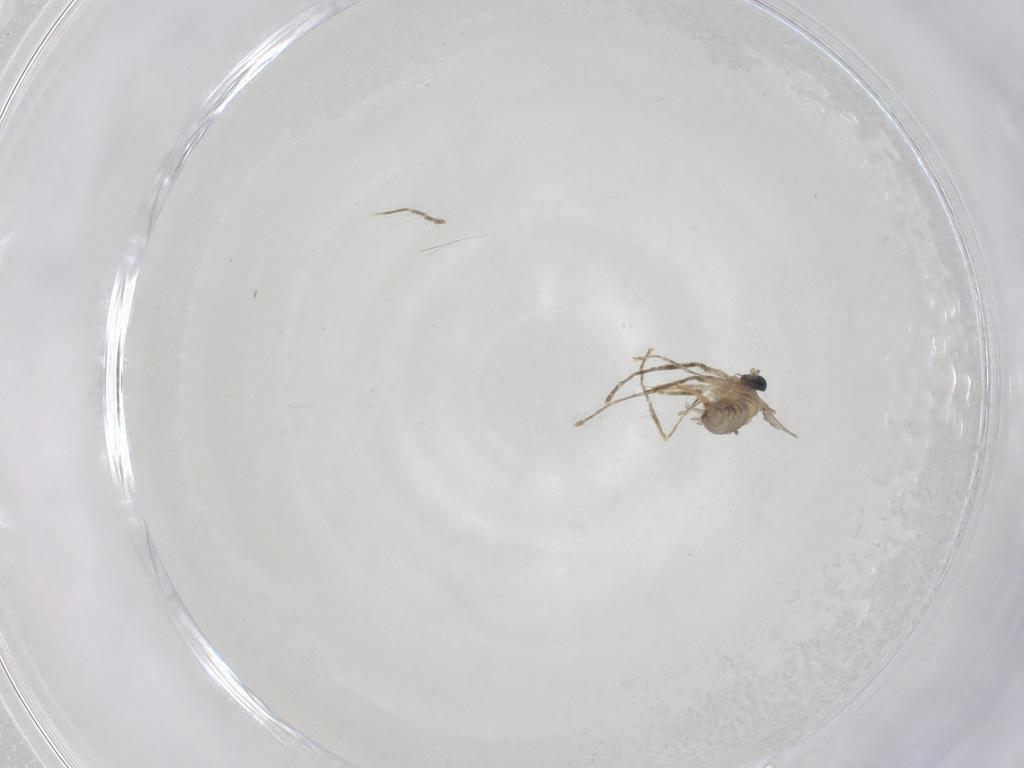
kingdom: Animalia
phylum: Arthropoda
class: Insecta
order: Diptera
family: Cecidomyiidae
